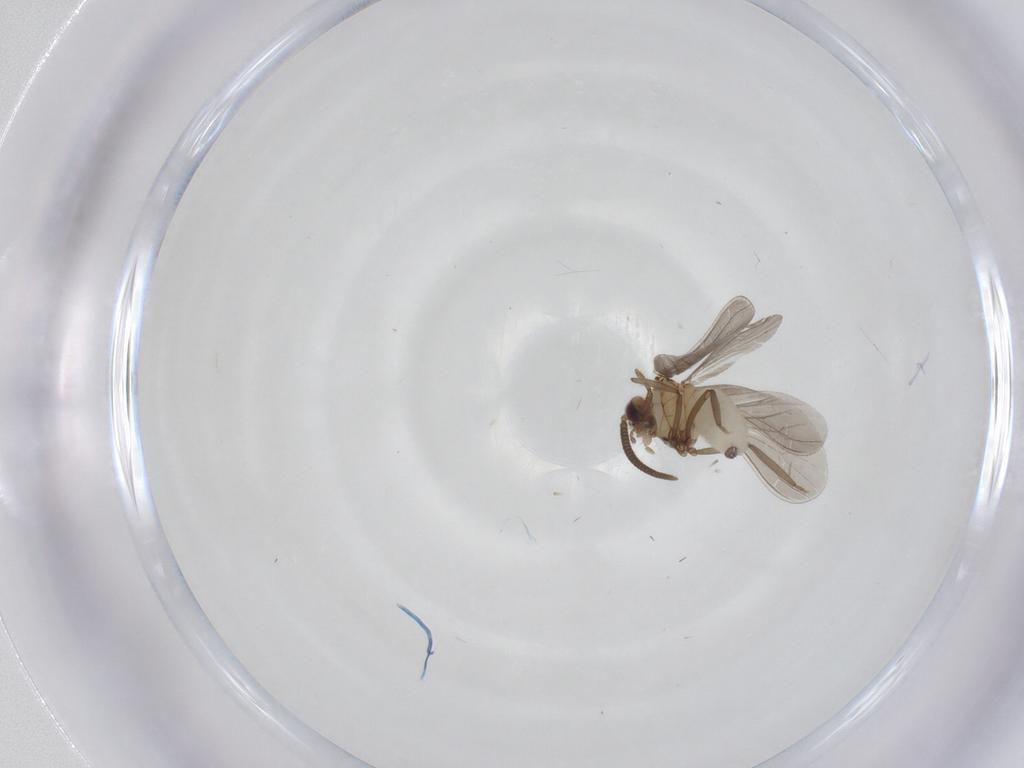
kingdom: Animalia
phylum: Arthropoda
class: Insecta
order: Neuroptera
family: Coniopterygidae
